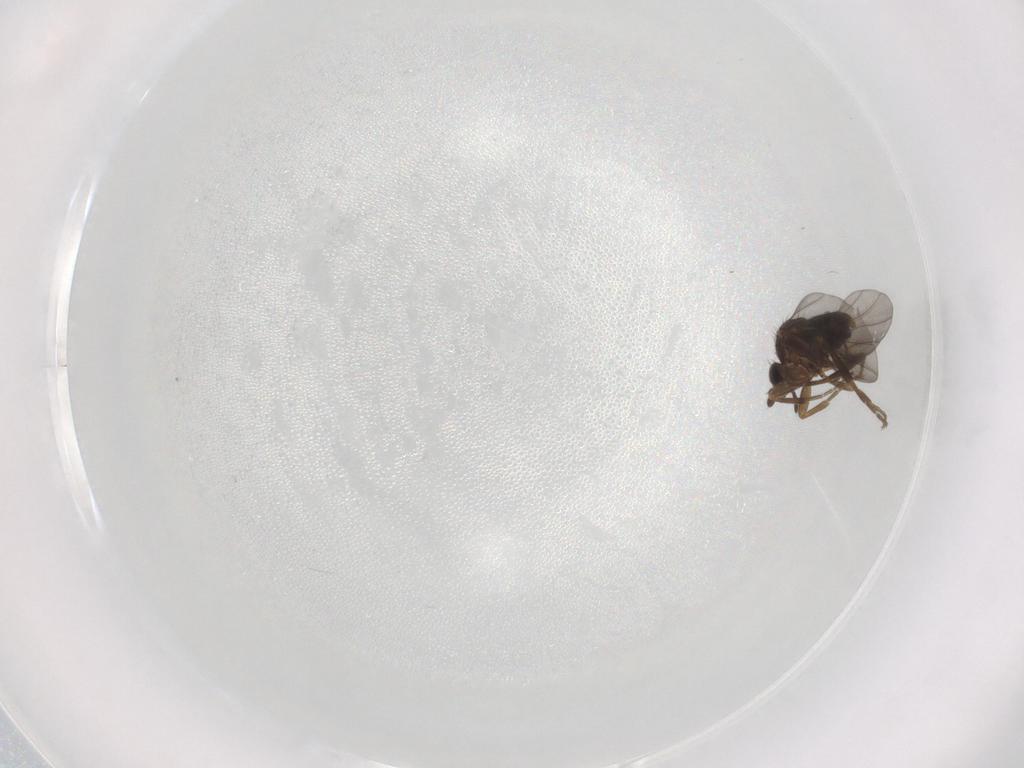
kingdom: Animalia
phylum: Arthropoda
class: Insecta
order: Diptera
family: Phoridae
